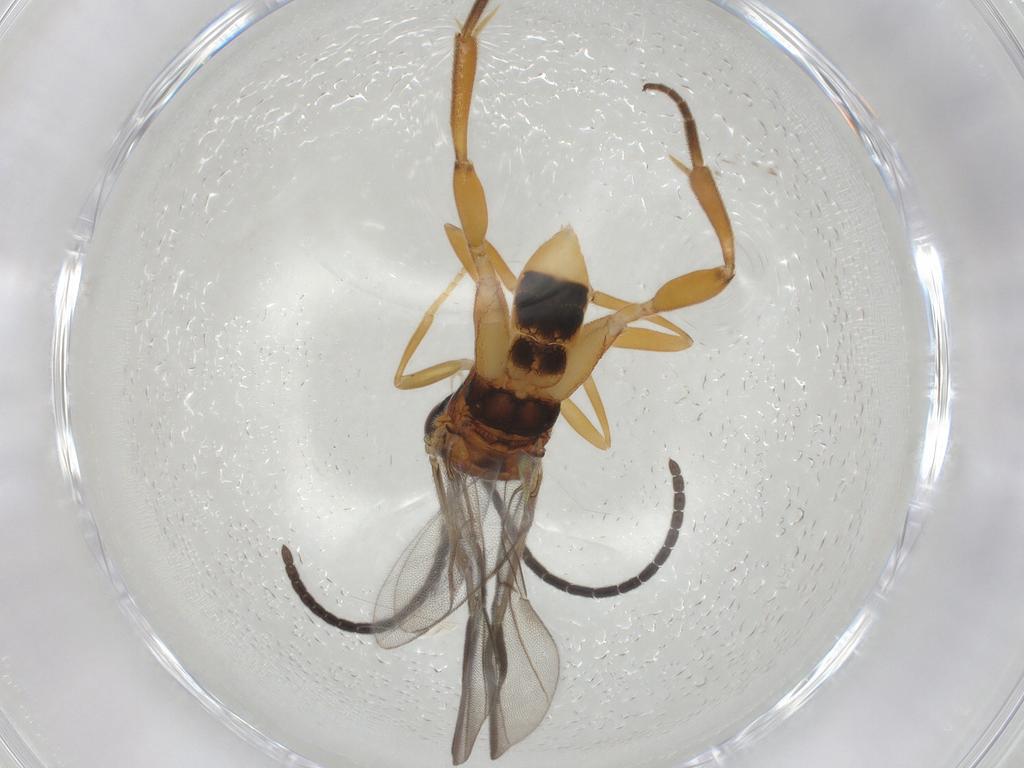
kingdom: Animalia
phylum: Arthropoda
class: Insecta
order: Hymenoptera
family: Braconidae
